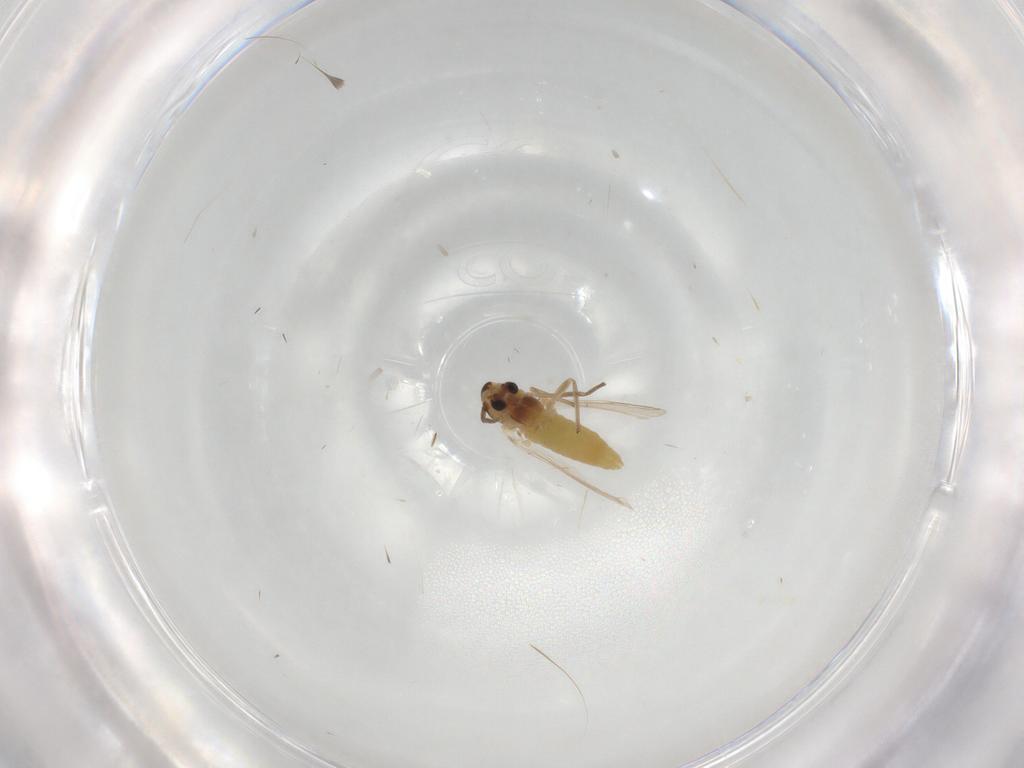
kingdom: Animalia
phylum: Arthropoda
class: Insecta
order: Diptera
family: Chironomidae
